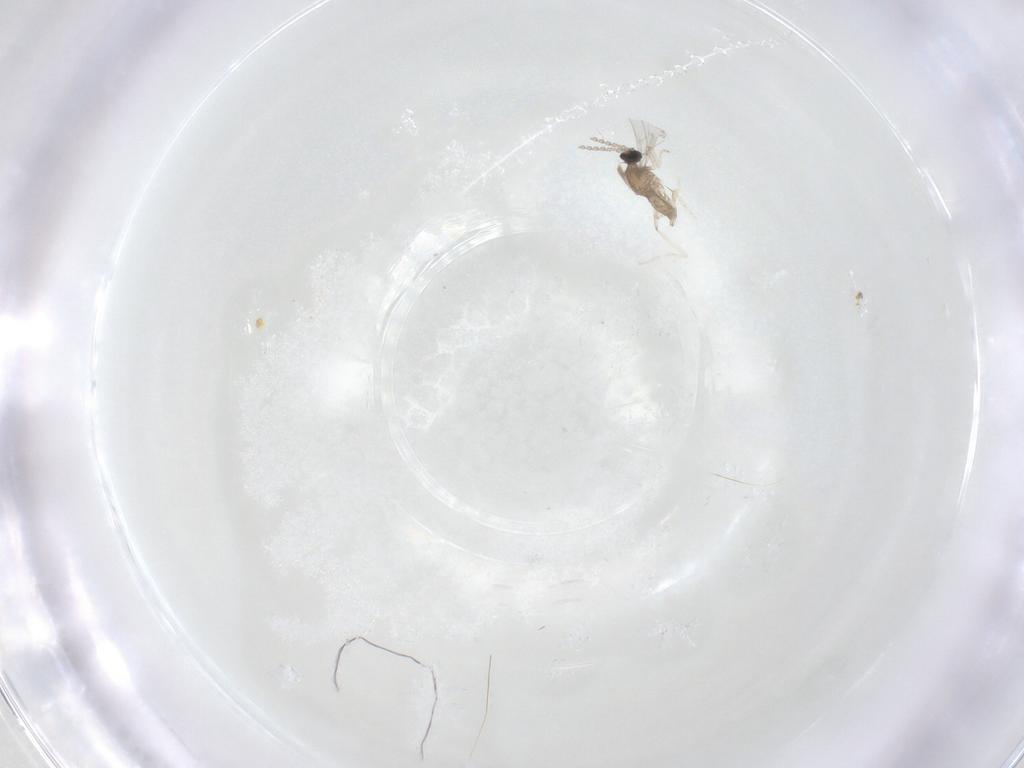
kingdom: Animalia
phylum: Arthropoda
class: Insecta
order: Diptera
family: Cecidomyiidae
